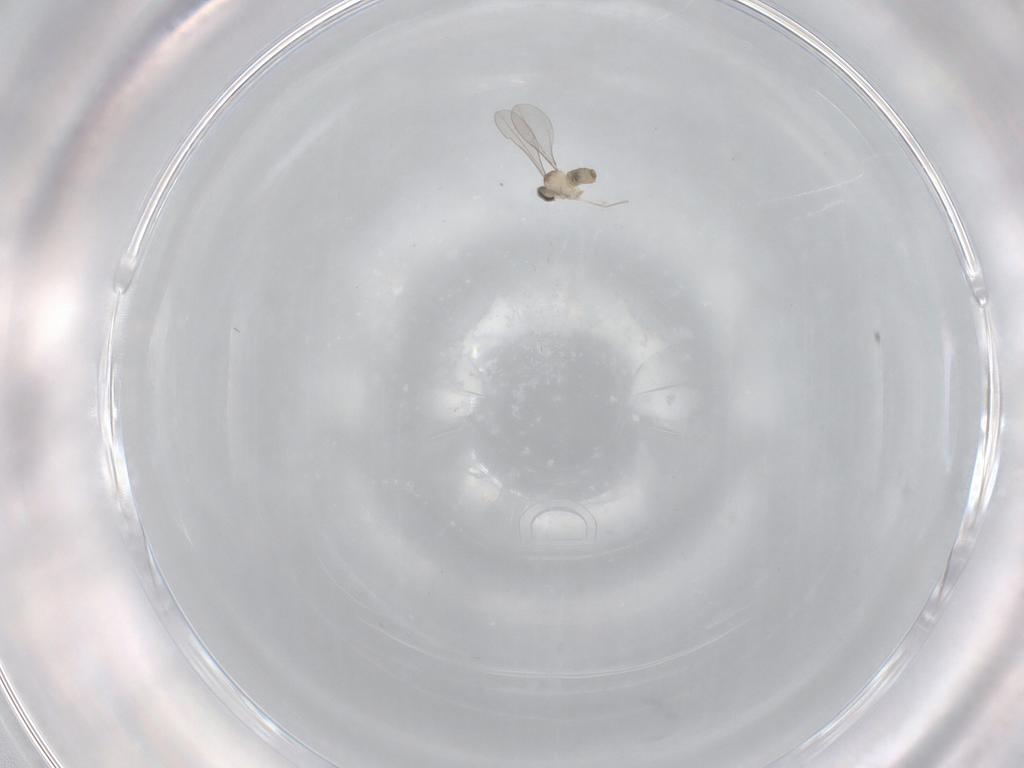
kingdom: Animalia
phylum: Arthropoda
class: Insecta
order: Diptera
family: Cecidomyiidae
